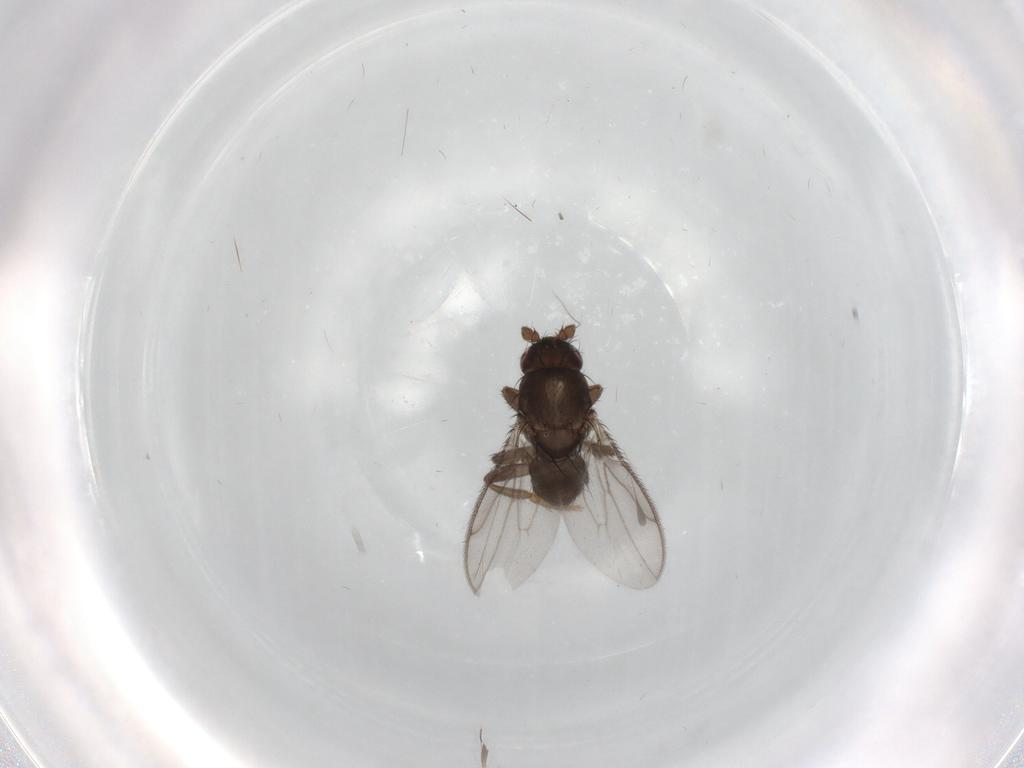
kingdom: Animalia
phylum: Arthropoda
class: Insecta
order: Diptera
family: Sphaeroceridae
